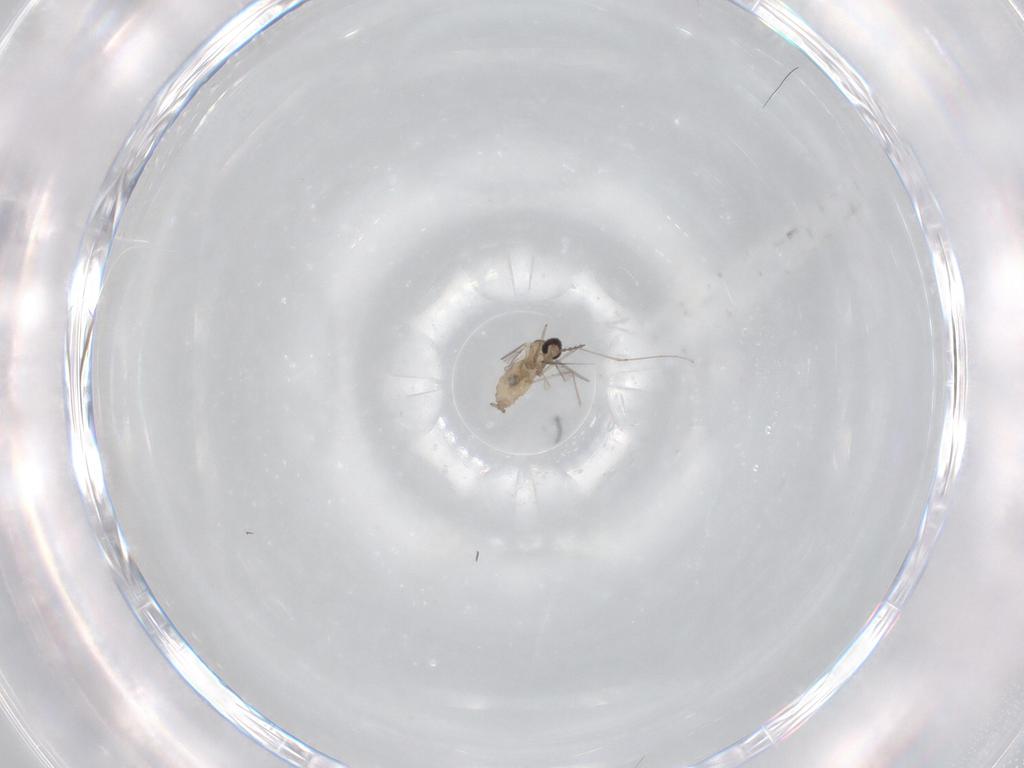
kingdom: Animalia
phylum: Arthropoda
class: Insecta
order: Diptera
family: Cecidomyiidae
